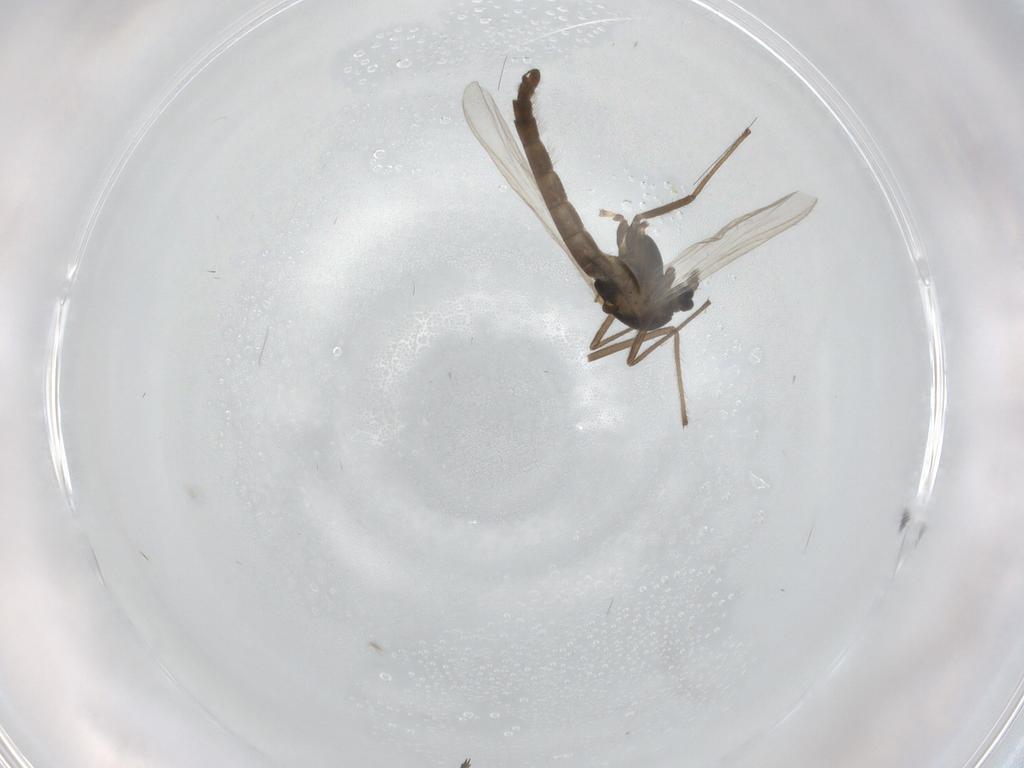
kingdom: Animalia
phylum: Arthropoda
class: Insecta
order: Diptera
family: Chironomidae
